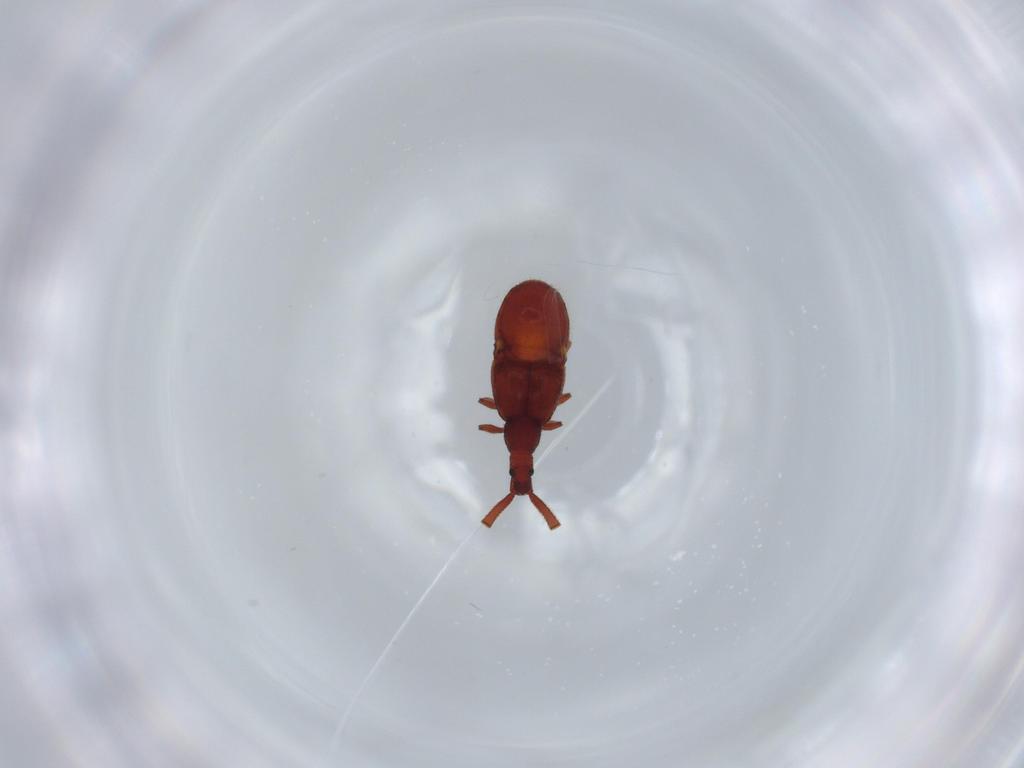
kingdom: Animalia
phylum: Arthropoda
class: Insecta
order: Coleoptera
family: Staphylinidae
